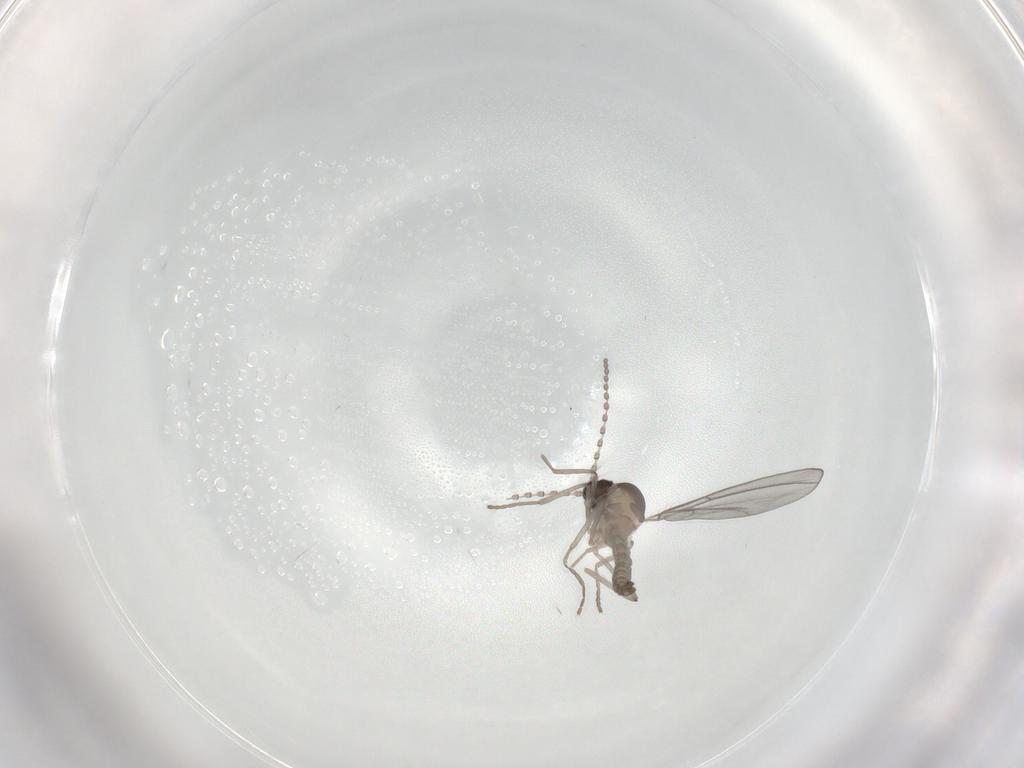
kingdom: Animalia
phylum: Arthropoda
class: Insecta
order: Diptera
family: Cecidomyiidae
